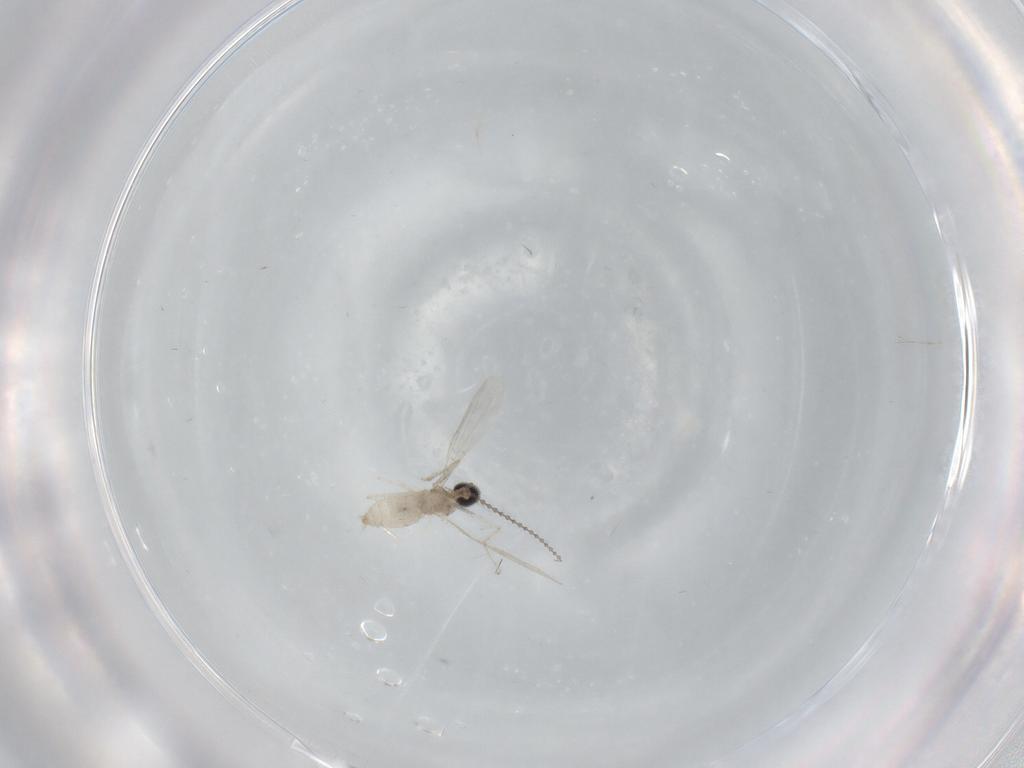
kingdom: Animalia
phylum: Arthropoda
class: Insecta
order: Diptera
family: Cecidomyiidae
